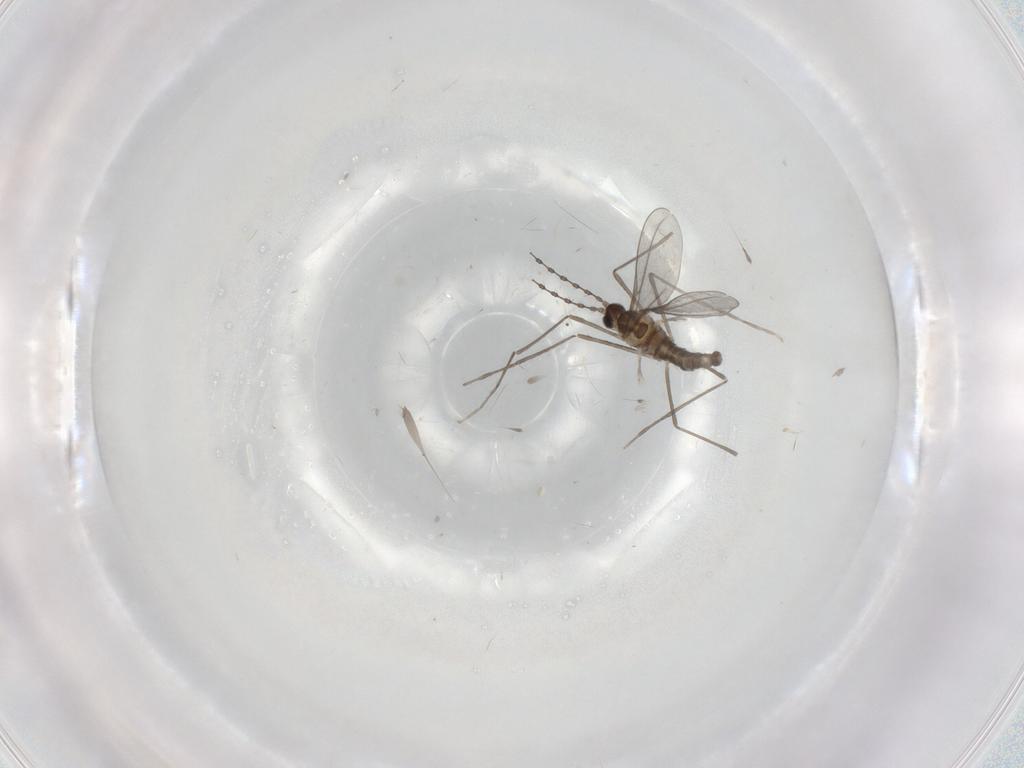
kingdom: Animalia
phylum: Arthropoda
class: Insecta
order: Diptera
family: Cecidomyiidae
